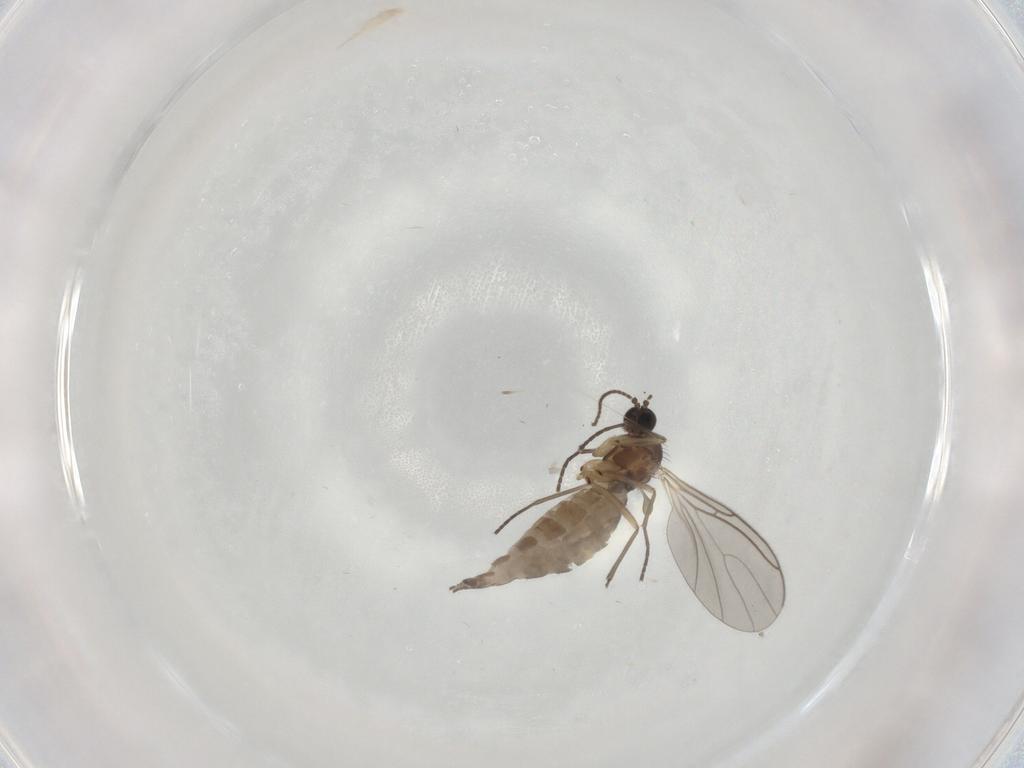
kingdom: Animalia
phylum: Arthropoda
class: Insecta
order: Diptera
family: Sciaridae
